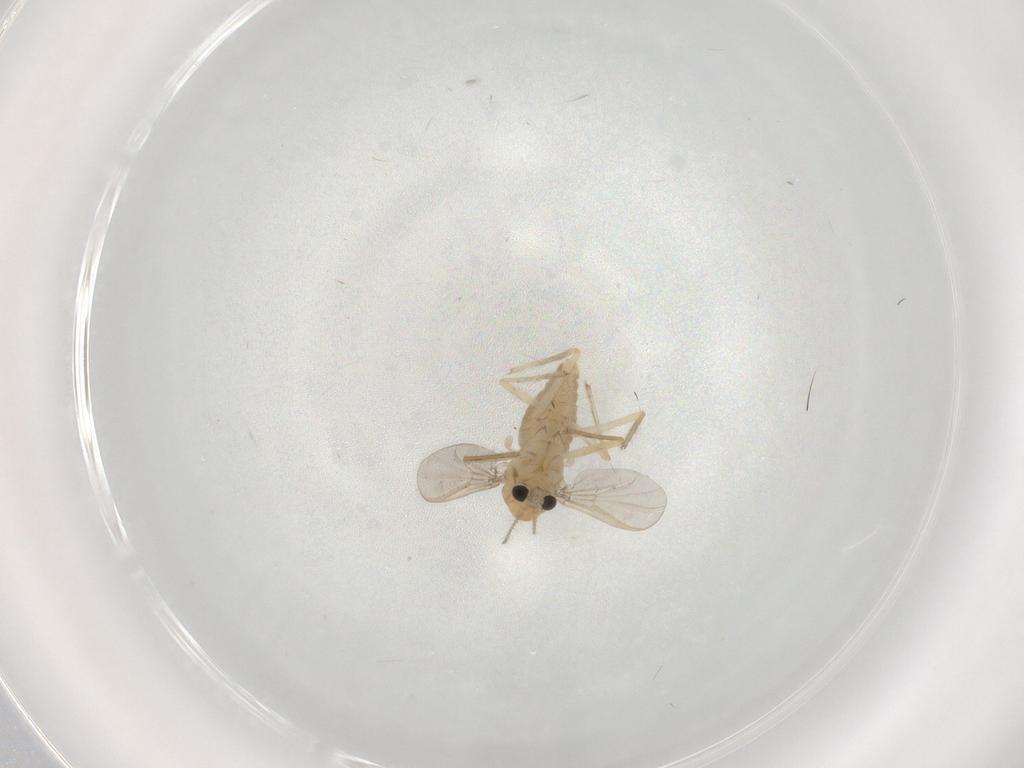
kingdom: Animalia
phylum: Arthropoda
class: Insecta
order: Diptera
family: Chironomidae
